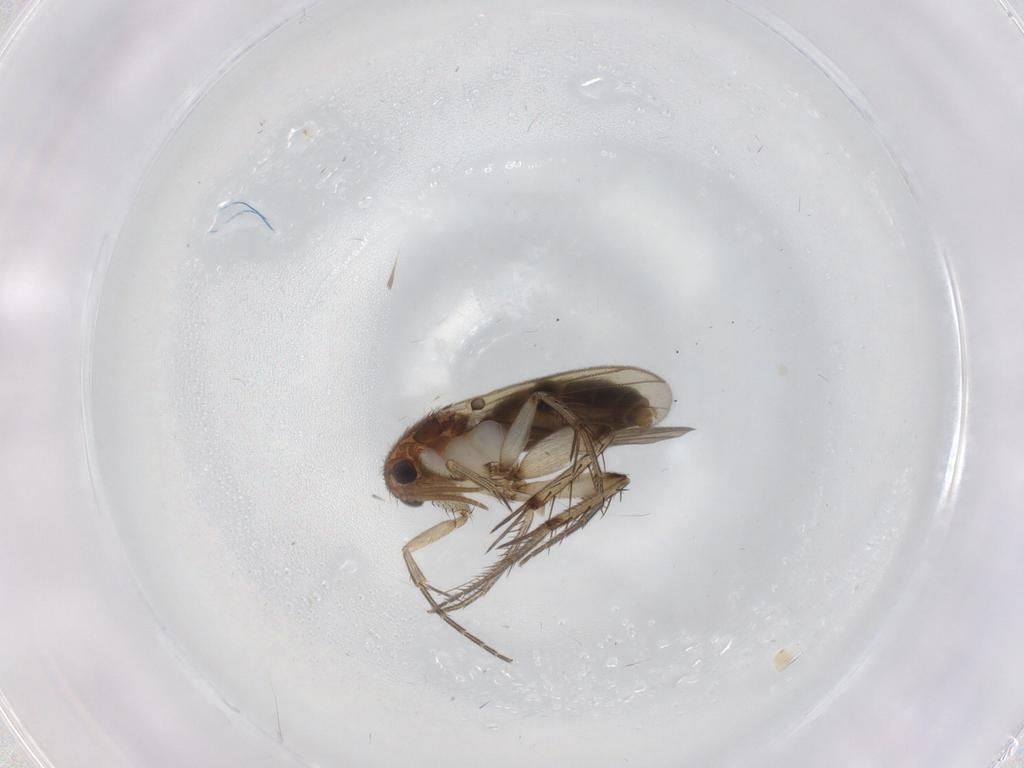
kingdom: Animalia
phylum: Arthropoda
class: Insecta
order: Diptera
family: Mycetophilidae
